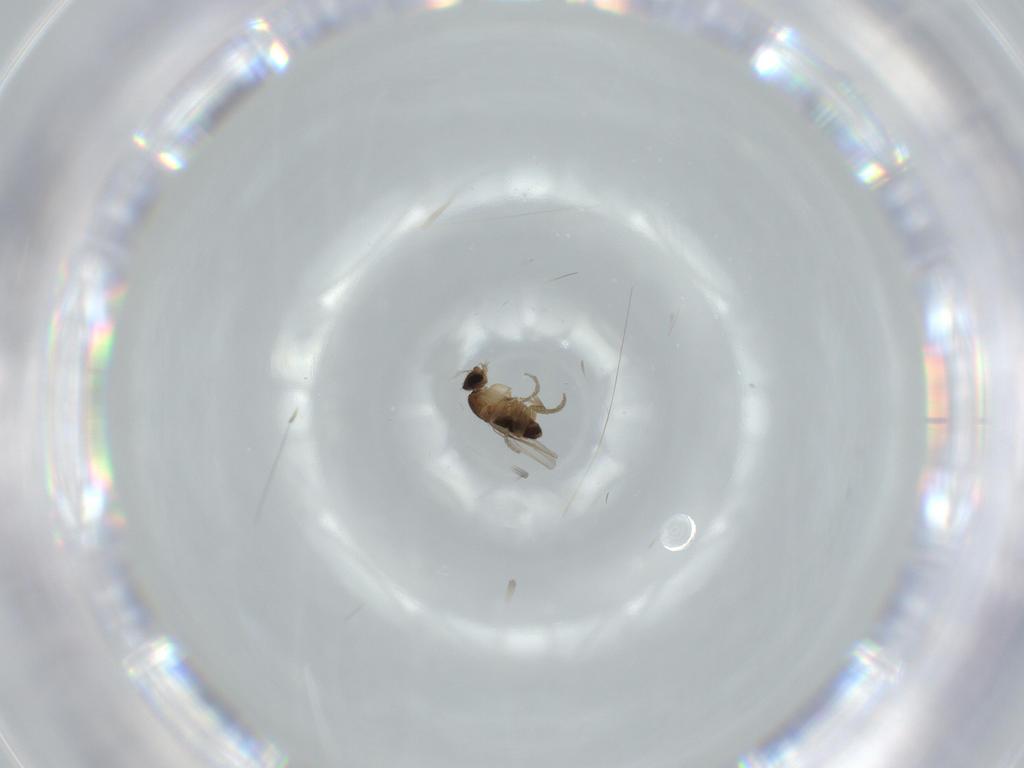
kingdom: Animalia
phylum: Arthropoda
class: Insecta
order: Diptera
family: Phoridae
